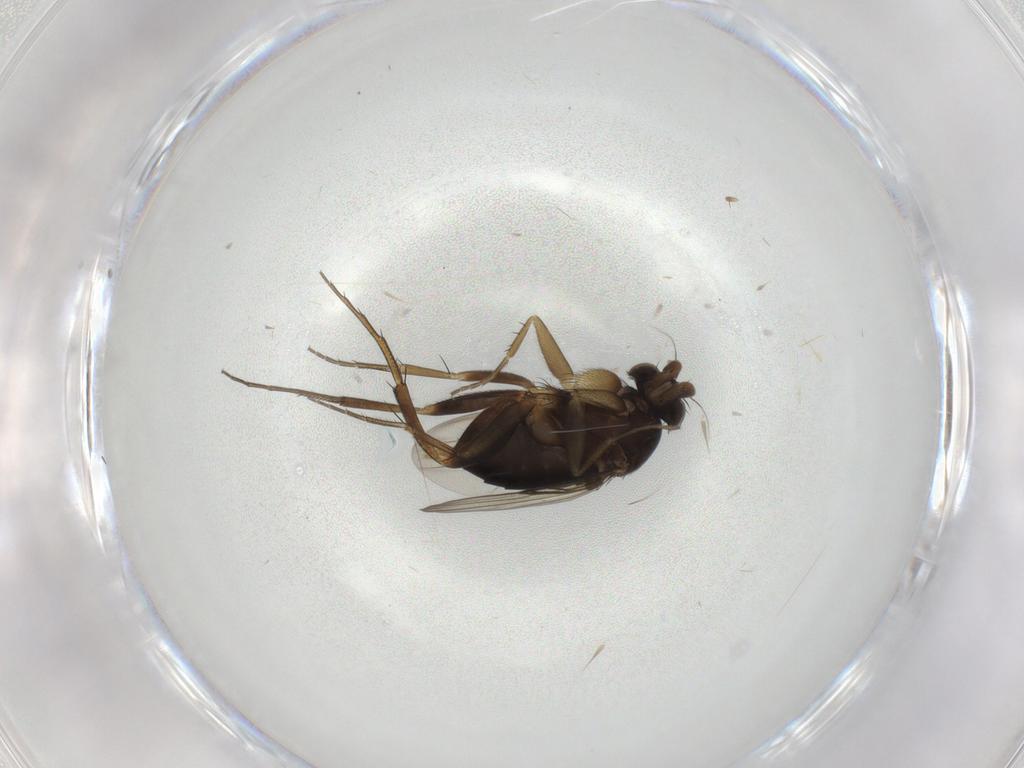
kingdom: Animalia
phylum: Arthropoda
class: Insecta
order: Diptera
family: Phoridae
